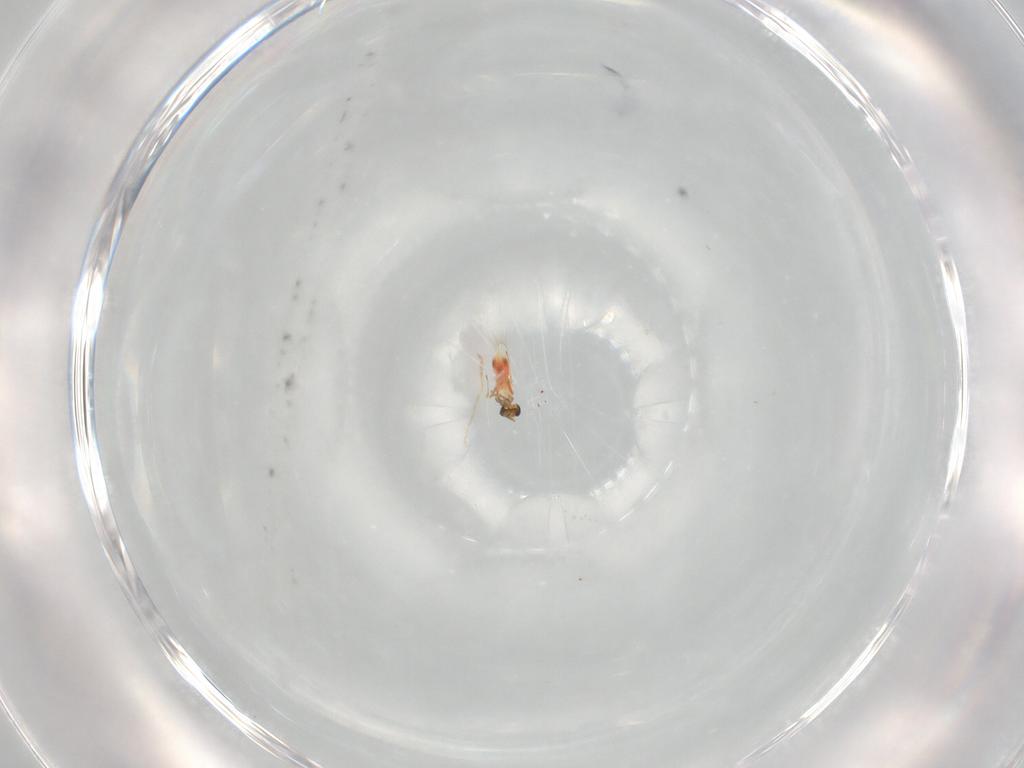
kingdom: Animalia
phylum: Arthropoda
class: Insecta
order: Hymenoptera
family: Trichogrammatidae
